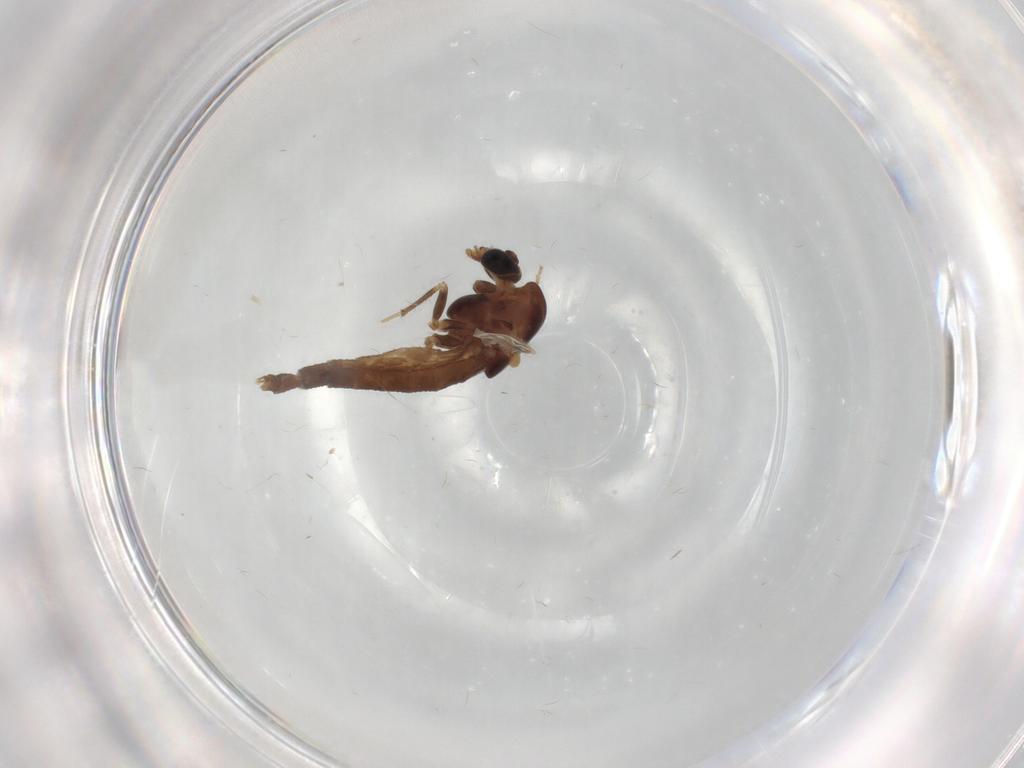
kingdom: Animalia
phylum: Arthropoda
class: Insecta
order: Diptera
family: Chironomidae
